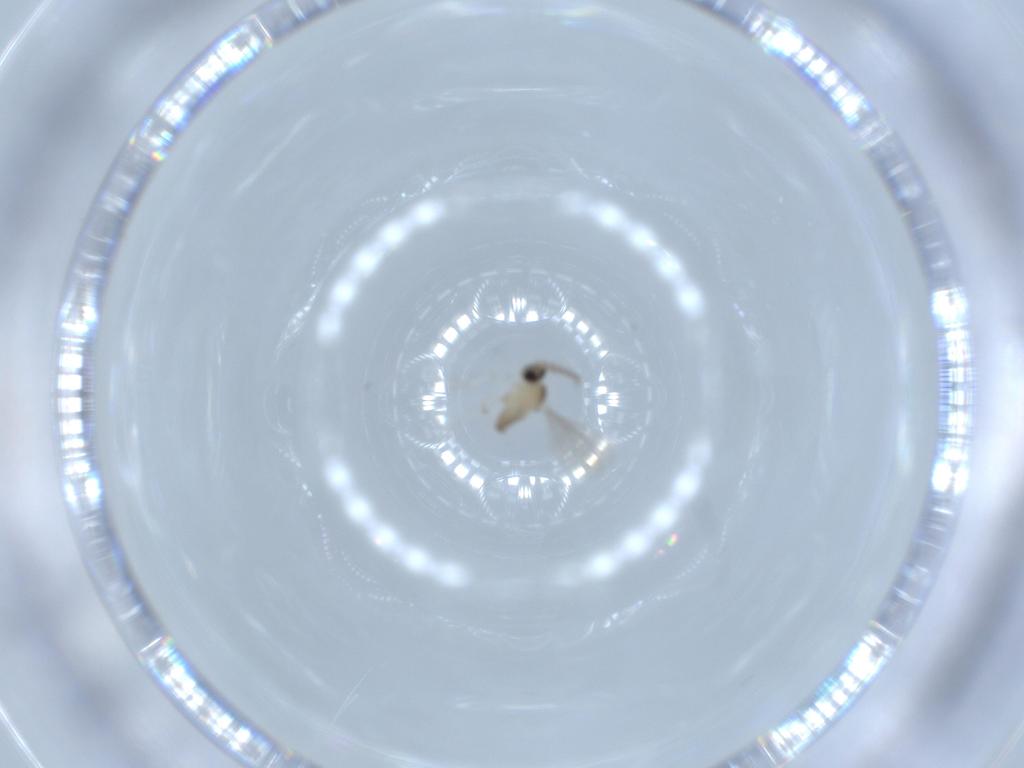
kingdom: Animalia
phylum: Arthropoda
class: Insecta
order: Diptera
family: Cecidomyiidae
